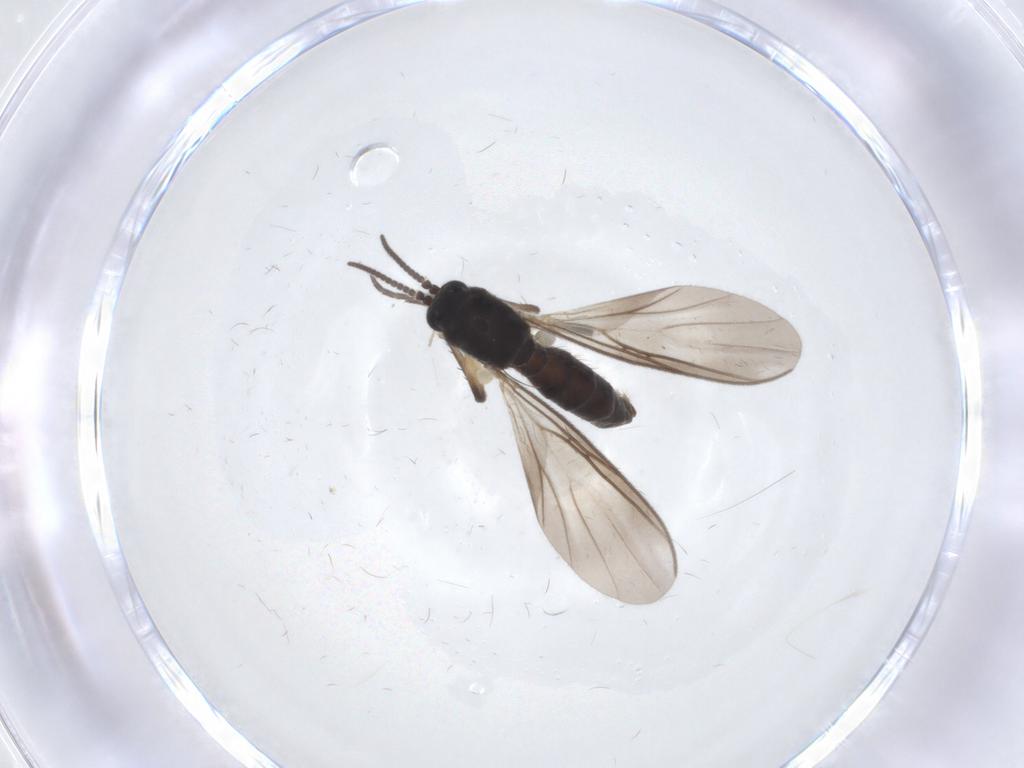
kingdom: Animalia
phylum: Arthropoda
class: Insecta
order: Diptera
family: Mycetophilidae
